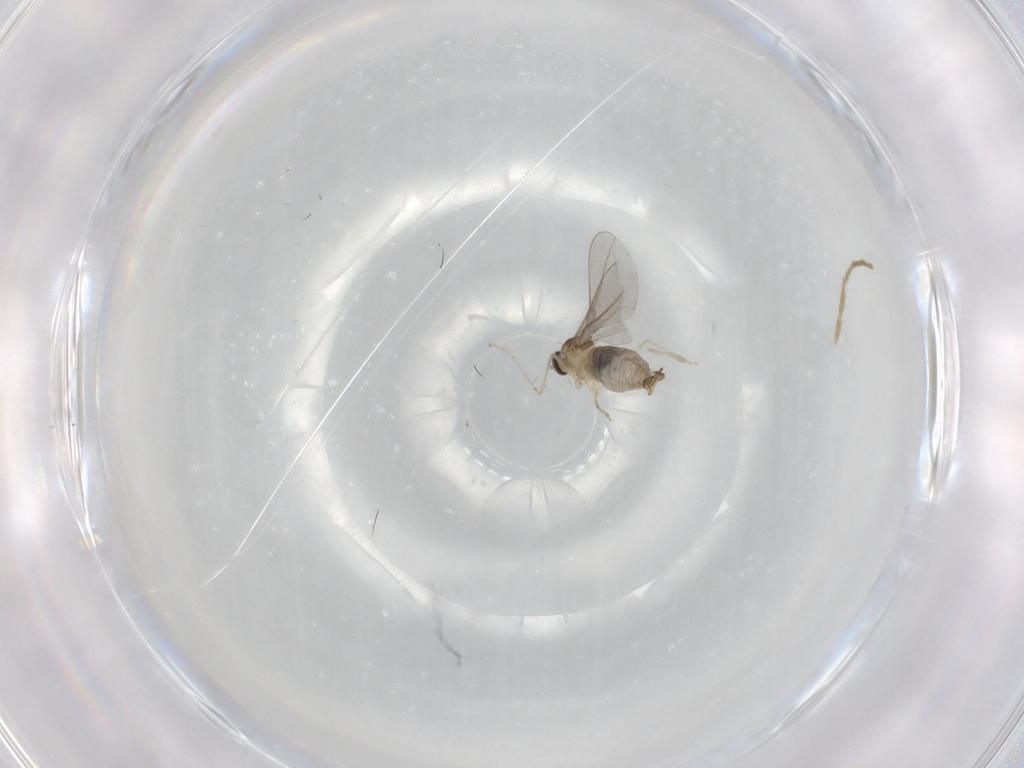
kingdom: Animalia
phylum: Arthropoda
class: Insecta
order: Diptera
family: Cecidomyiidae
